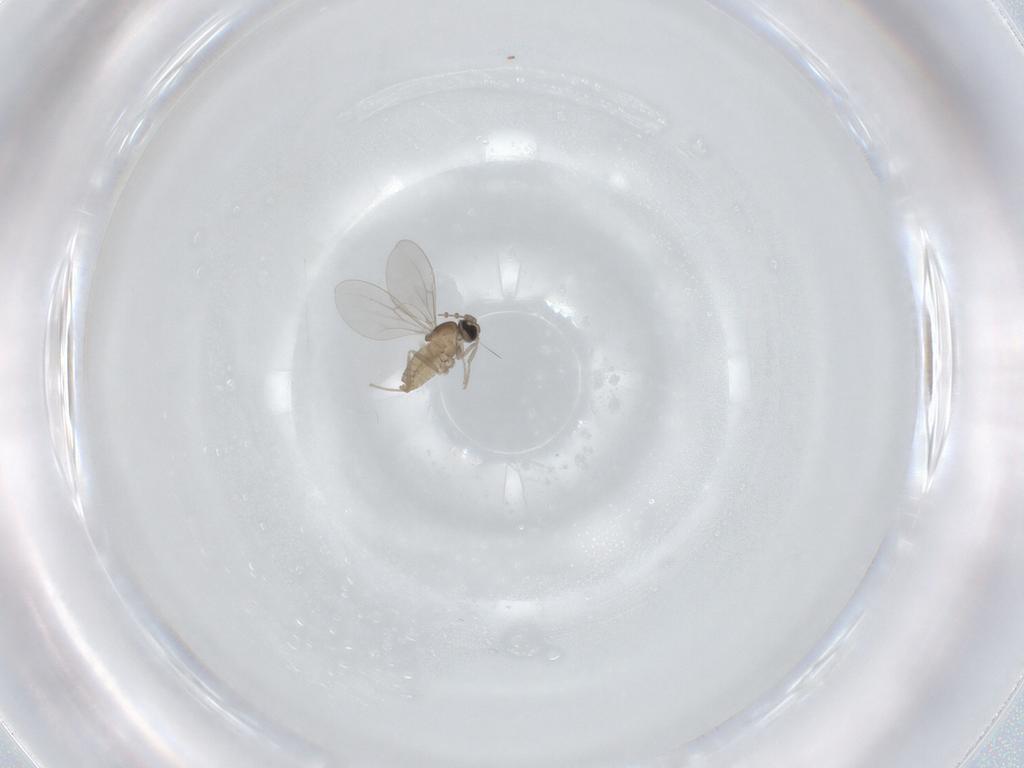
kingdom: Animalia
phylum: Arthropoda
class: Insecta
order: Diptera
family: Cecidomyiidae
